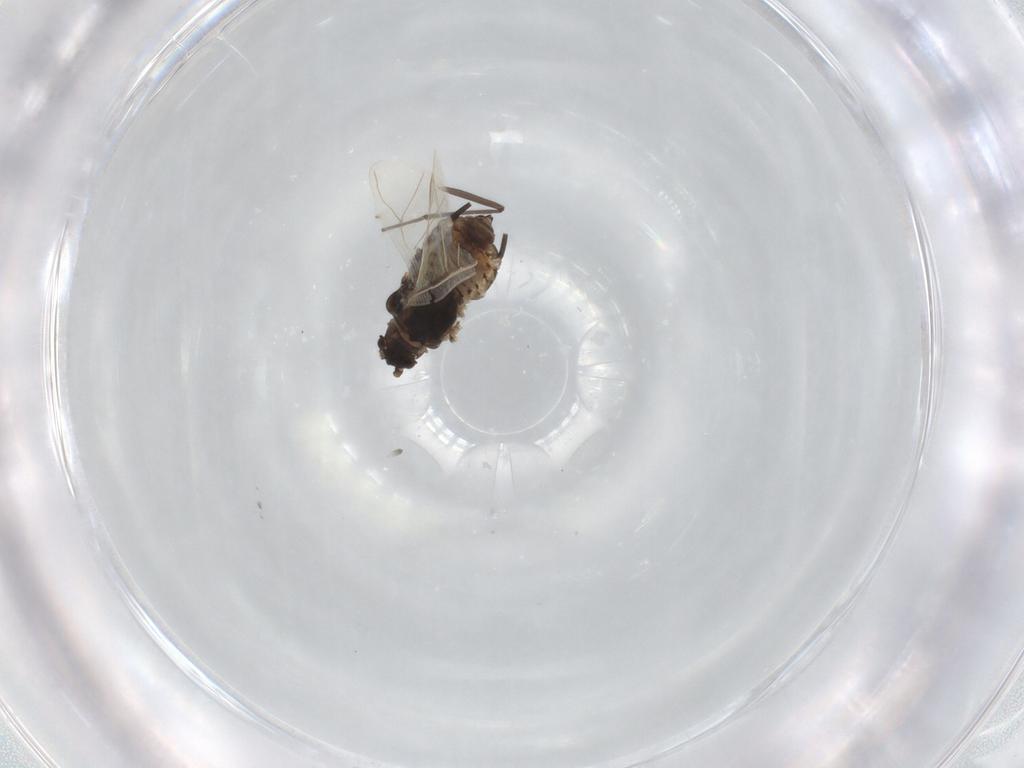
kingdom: Animalia
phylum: Arthropoda
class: Insecta
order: Hemiptera
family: Aphididae
